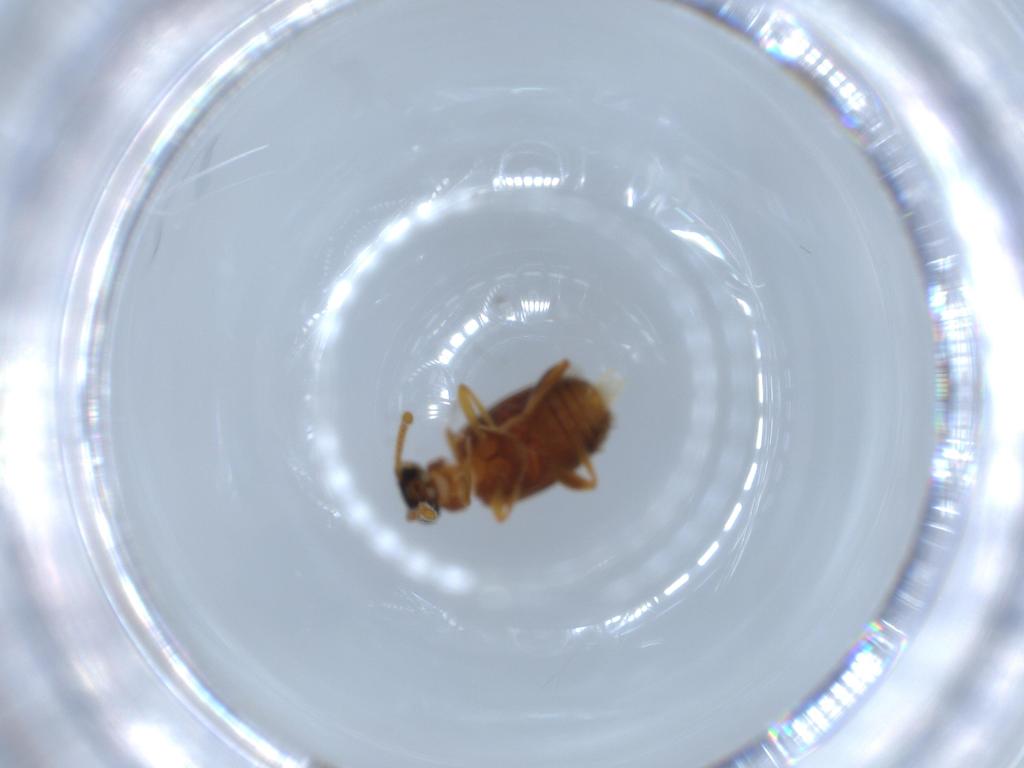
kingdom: Animalia
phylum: Arthropoda
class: Insecta
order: Coleoptera
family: Aderidae
